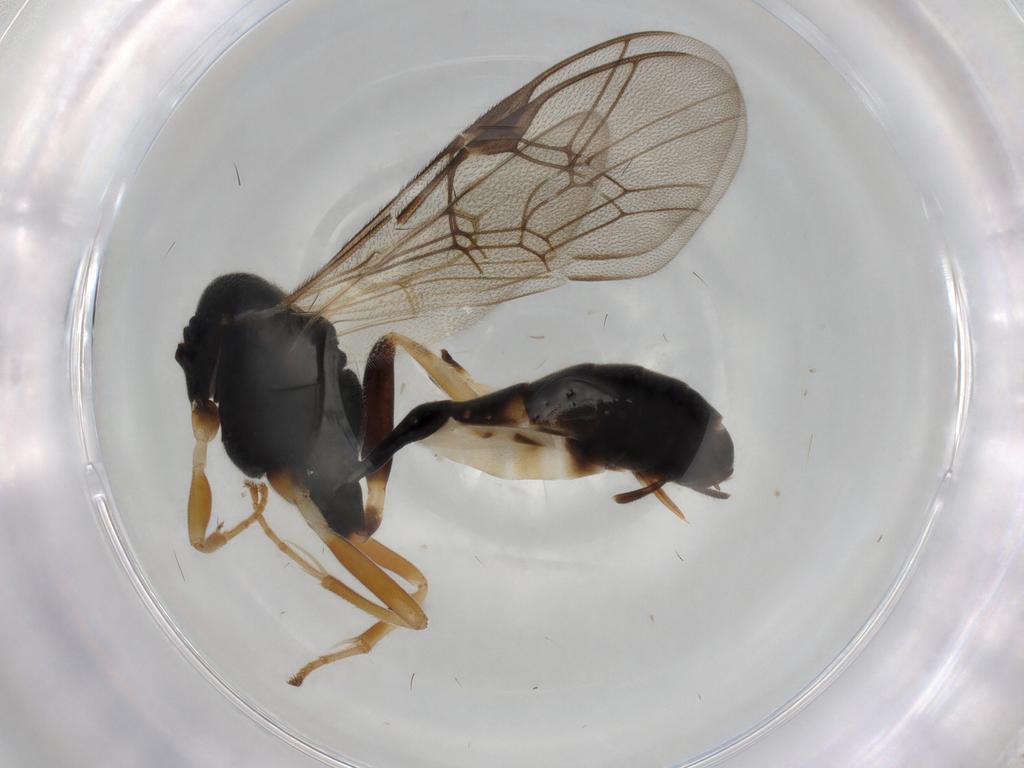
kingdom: Animalia
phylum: Arthropoda
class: Insecta
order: Hymenoptera
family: Ichneumonidae
